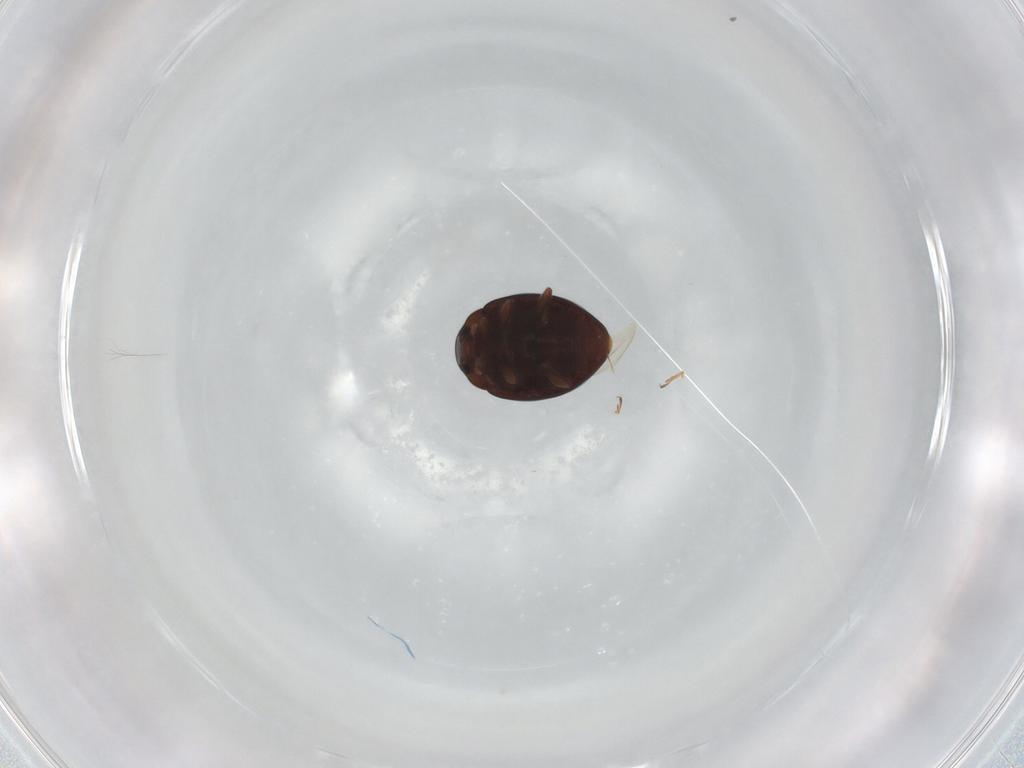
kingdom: Animalia
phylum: Arthropoda
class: Insecta
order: Coleoptera
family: Coccinellidae
